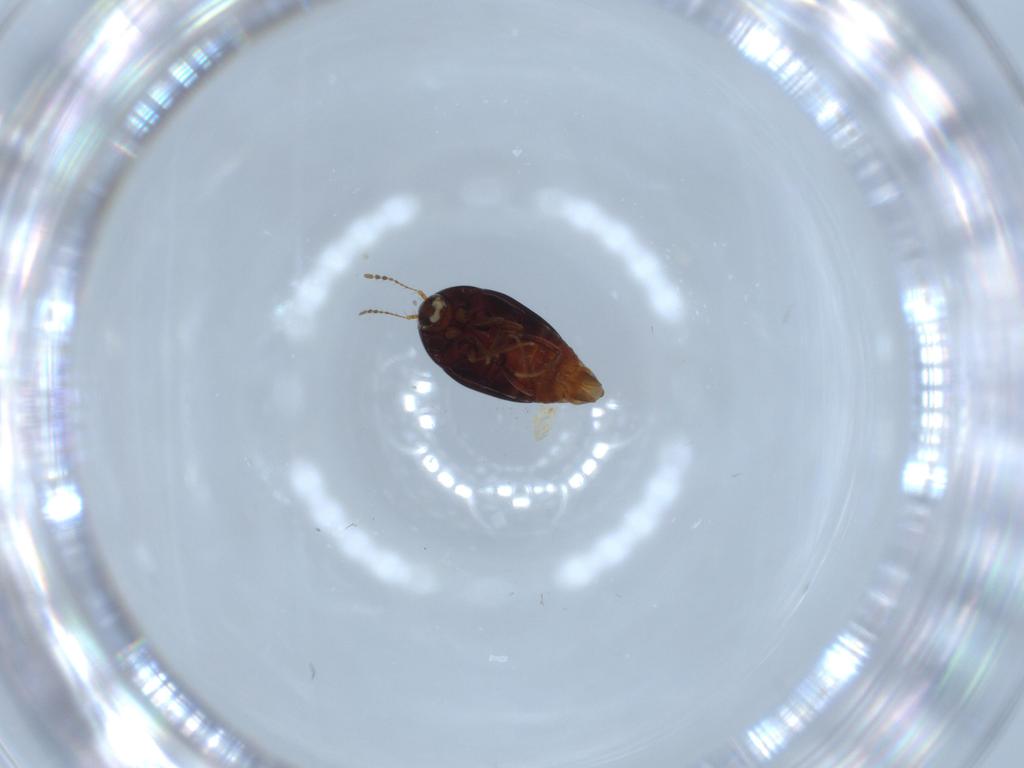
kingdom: Animalia
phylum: Arthropoda
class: Insecta
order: Coleoptera
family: Staphylinidae
